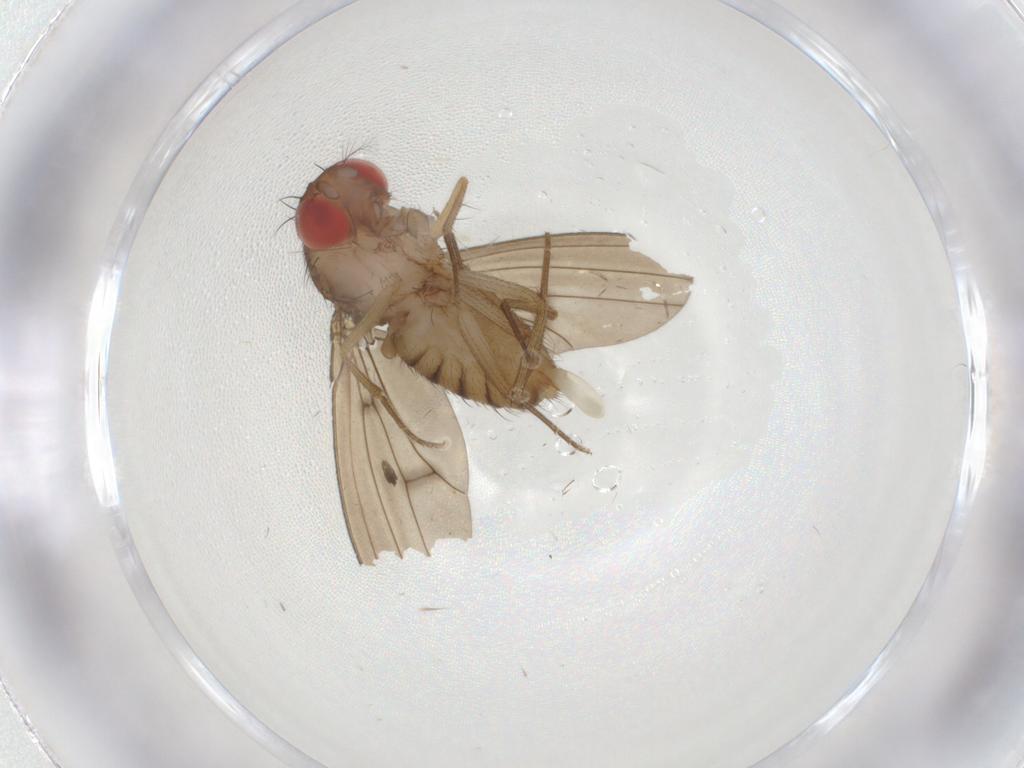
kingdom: Animalia
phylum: Arthropoda
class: Insecta
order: Diptera
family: Drosophilidae
